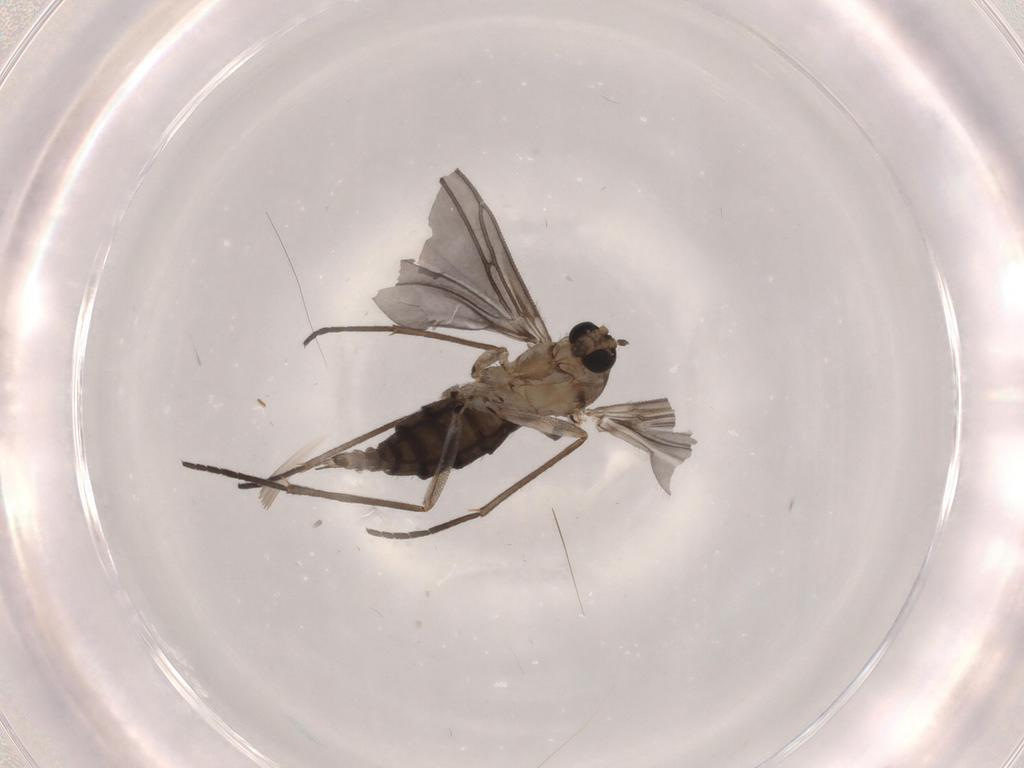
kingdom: Animalia
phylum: Arthropoda
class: Insecta
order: Diptera
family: Sciaridae
